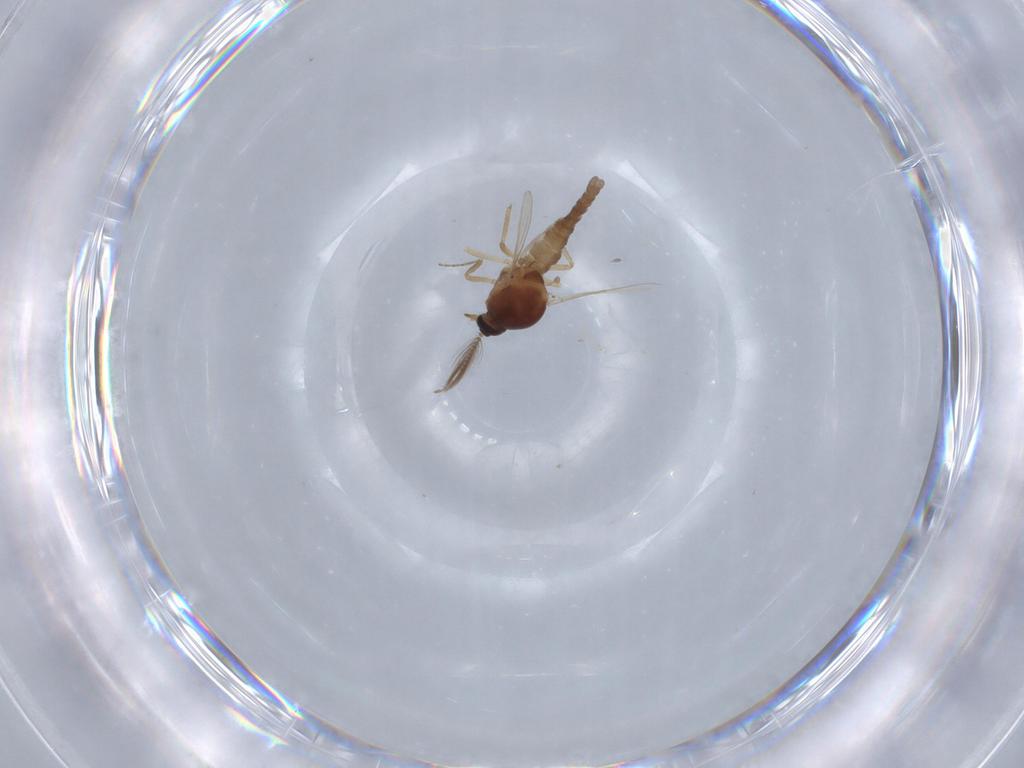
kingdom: Animalia
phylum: Arthropoda
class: Insecta
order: Diptera
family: Ceratopogonidae
